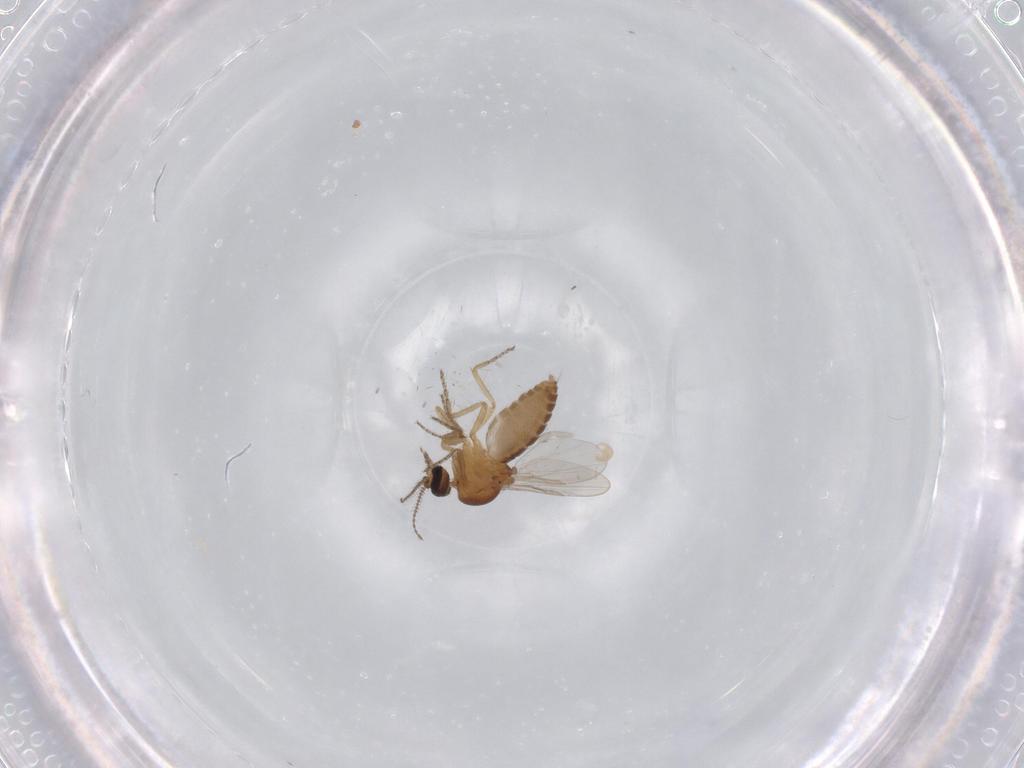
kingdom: Animalia
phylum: Arthropoda
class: Insecta
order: Diptera
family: Ceratopogonidae
